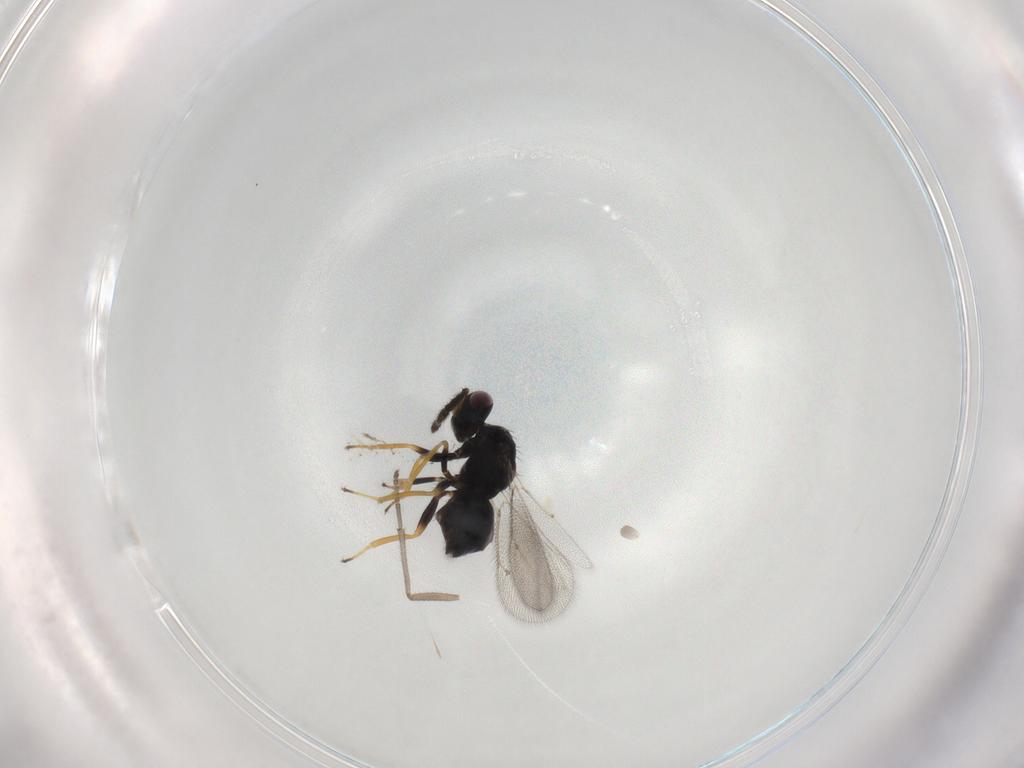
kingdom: Animalia
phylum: Arthropoda
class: Insecta
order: Hymenoptera
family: Eulophidae
